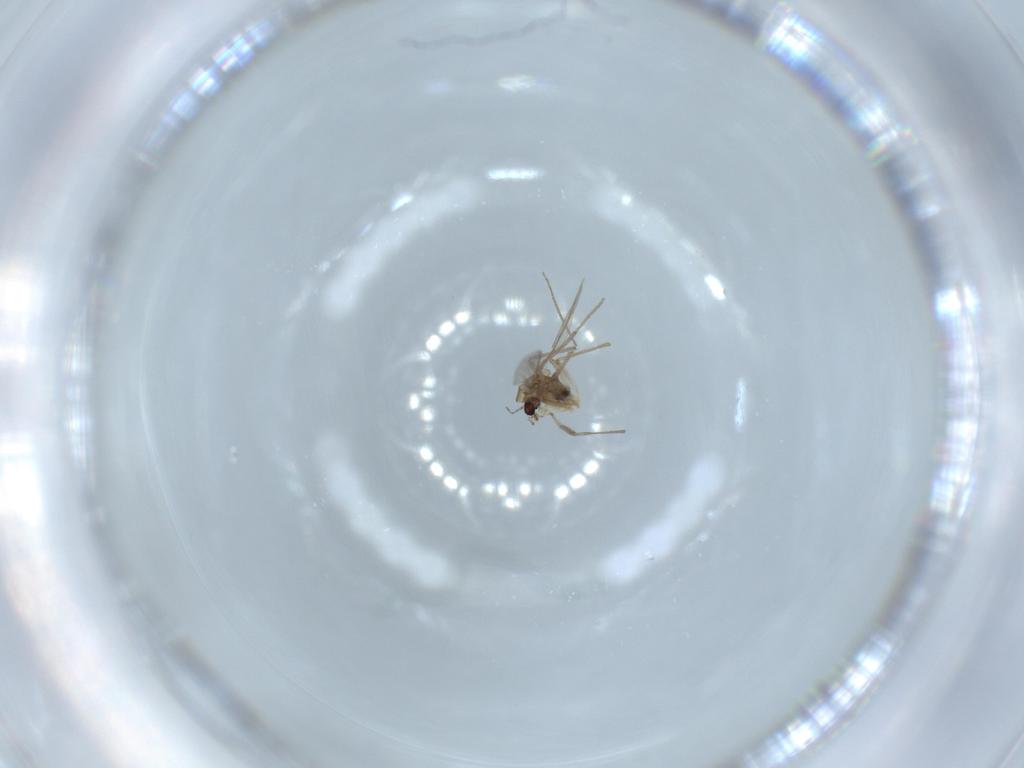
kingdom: Animalia
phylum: Arthropoda
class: Insecta
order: Diptera
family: Chironomidae
